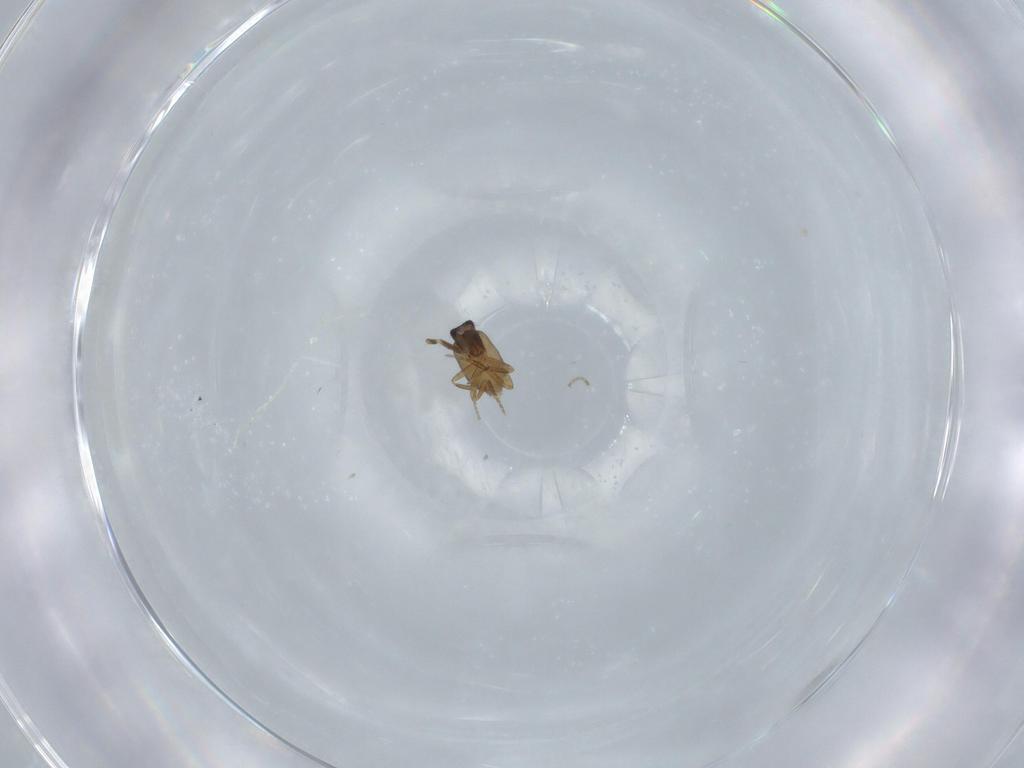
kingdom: Animalia
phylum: Arthropoda
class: Insecta
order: Diptera
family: Phoridae
